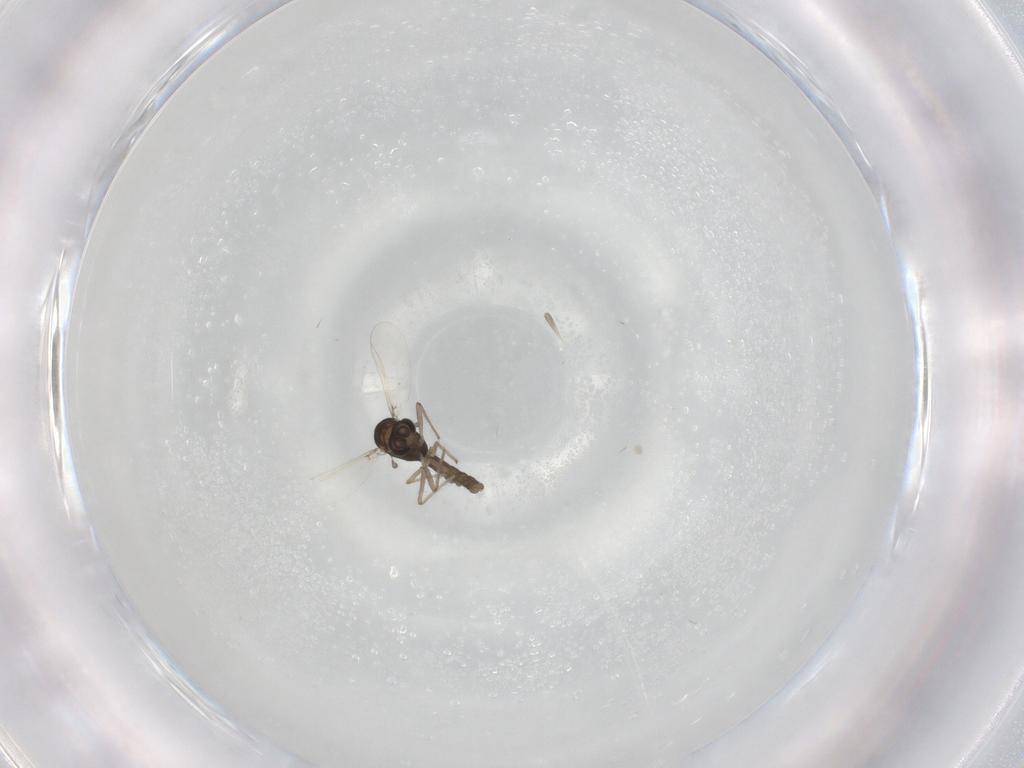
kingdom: Animalia
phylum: Arthropoda
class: Insecta
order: Diptera
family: Chironomidae
